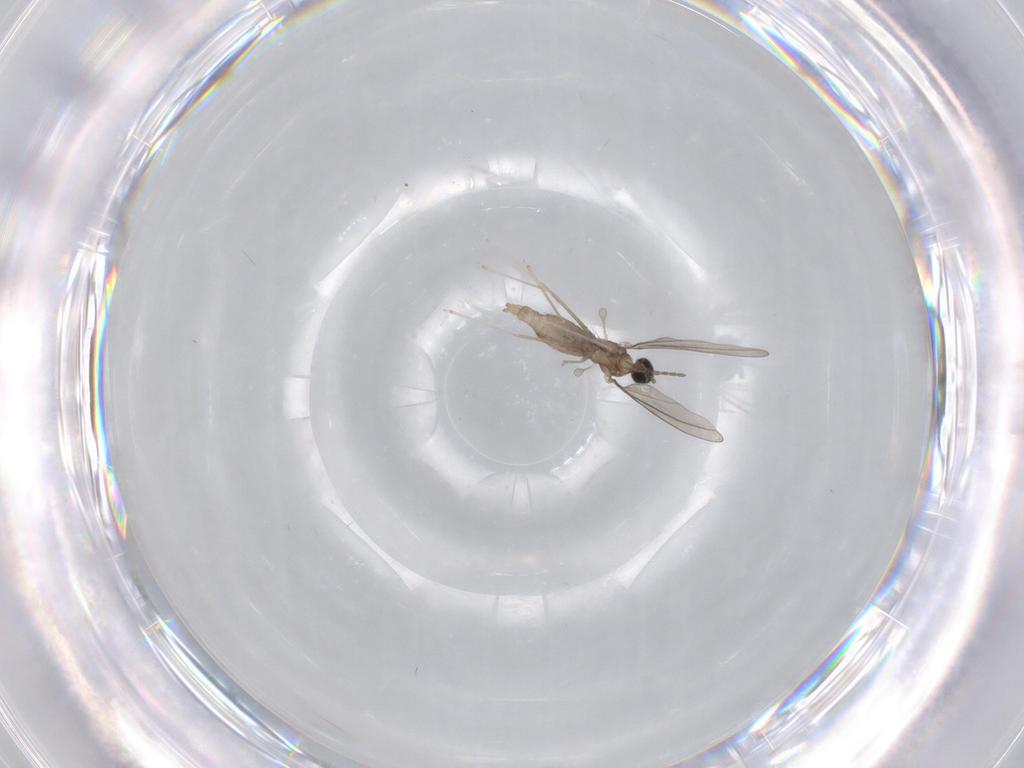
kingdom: Animalia
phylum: Arthropoda
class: Insecta
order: Diptera
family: Cecidomyiidae
